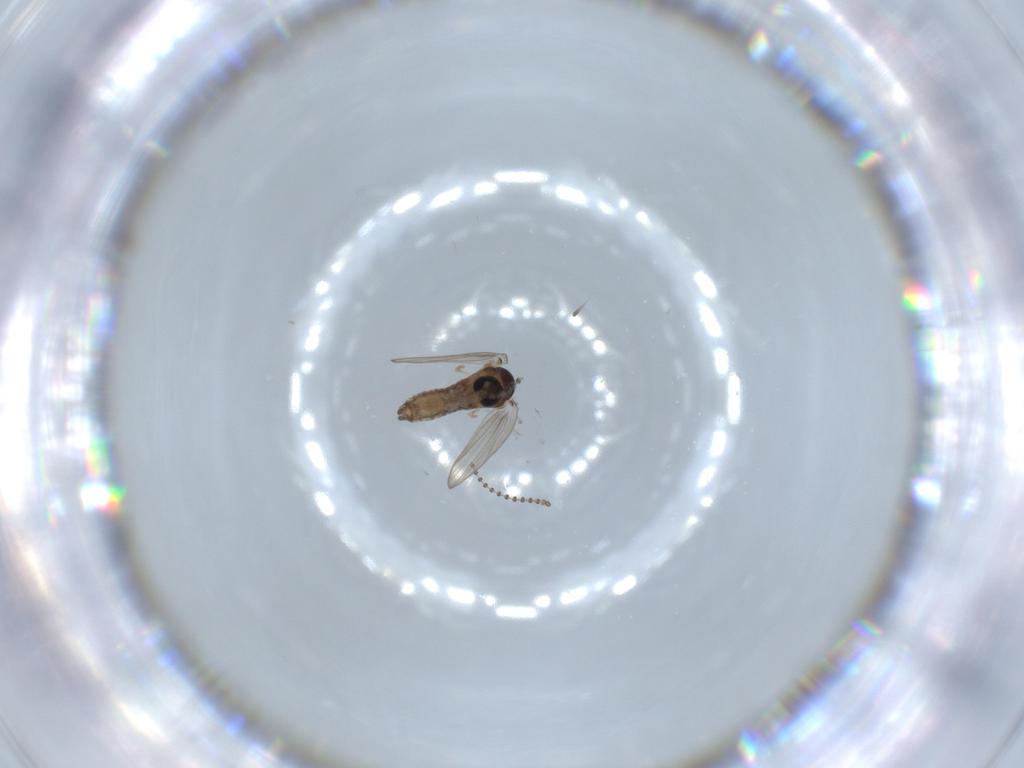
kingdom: Animalia
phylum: Arthropoda
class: Insecta
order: Diptera
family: Psychodidae
